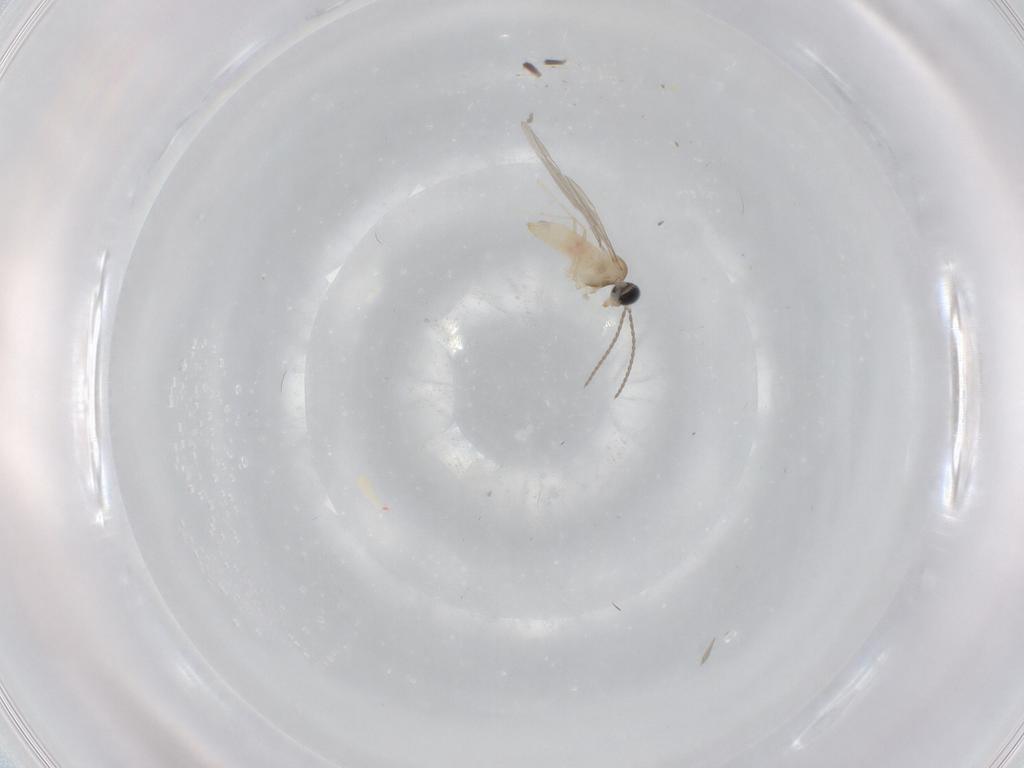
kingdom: Animalia
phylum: Arthropoda
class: Insecta
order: Diptera
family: Cecidomyiidae
